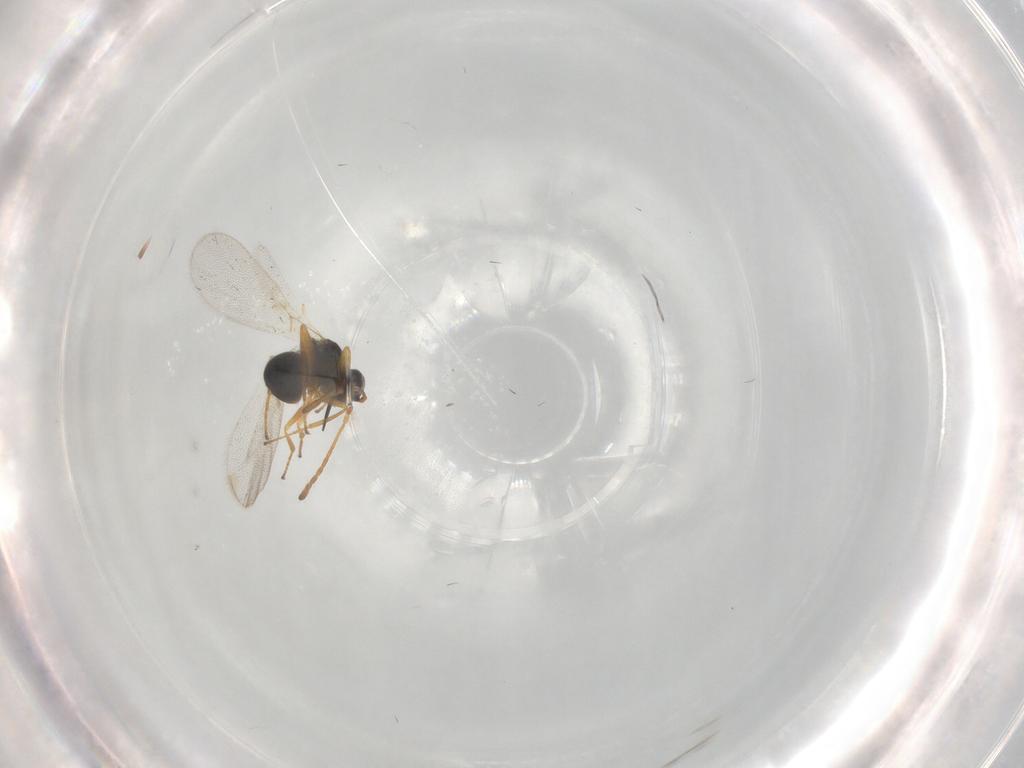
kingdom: Animalia
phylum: Arthropoda
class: Insecta
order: Hymenoptera
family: Figitidae
